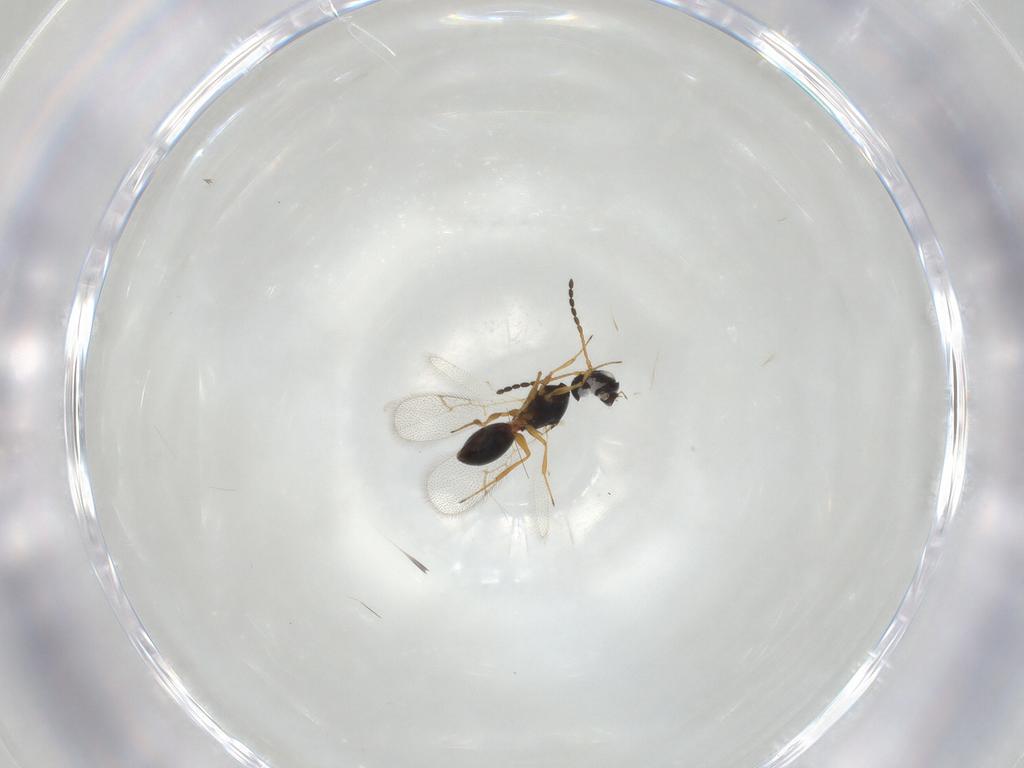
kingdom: Animalia
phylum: Arthropoda
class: Insecta
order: Hymenoptera
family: Figitidae
